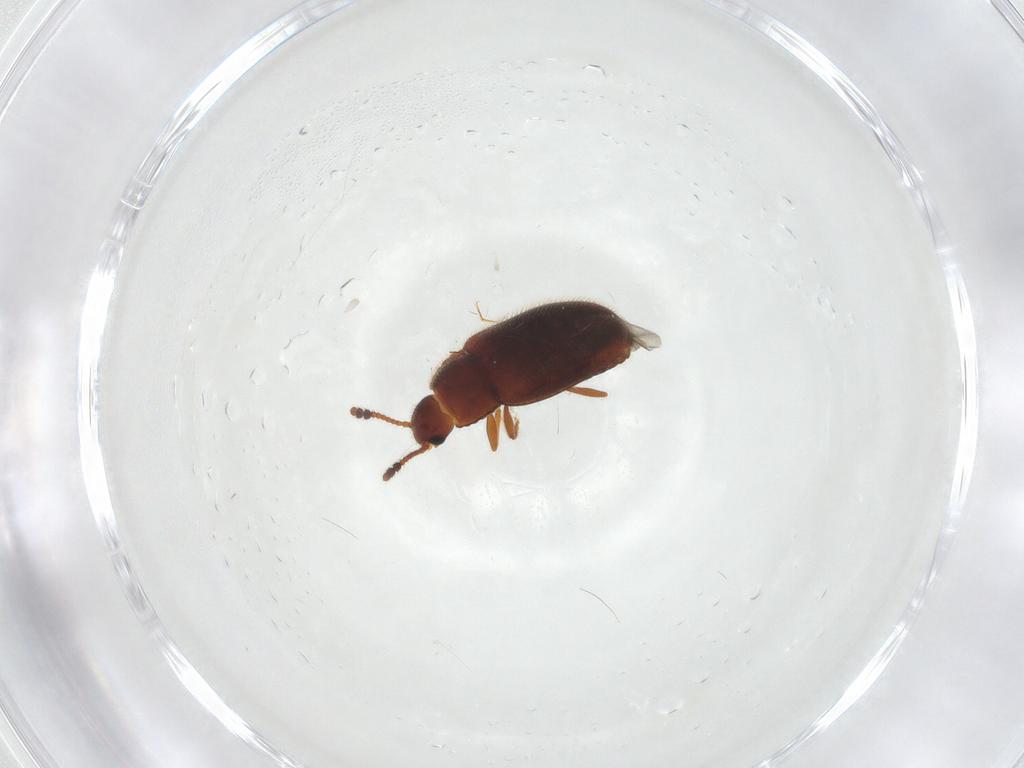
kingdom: Animalia
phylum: Arthropoda
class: Insecta
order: Coleoptera
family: Erotylidae
